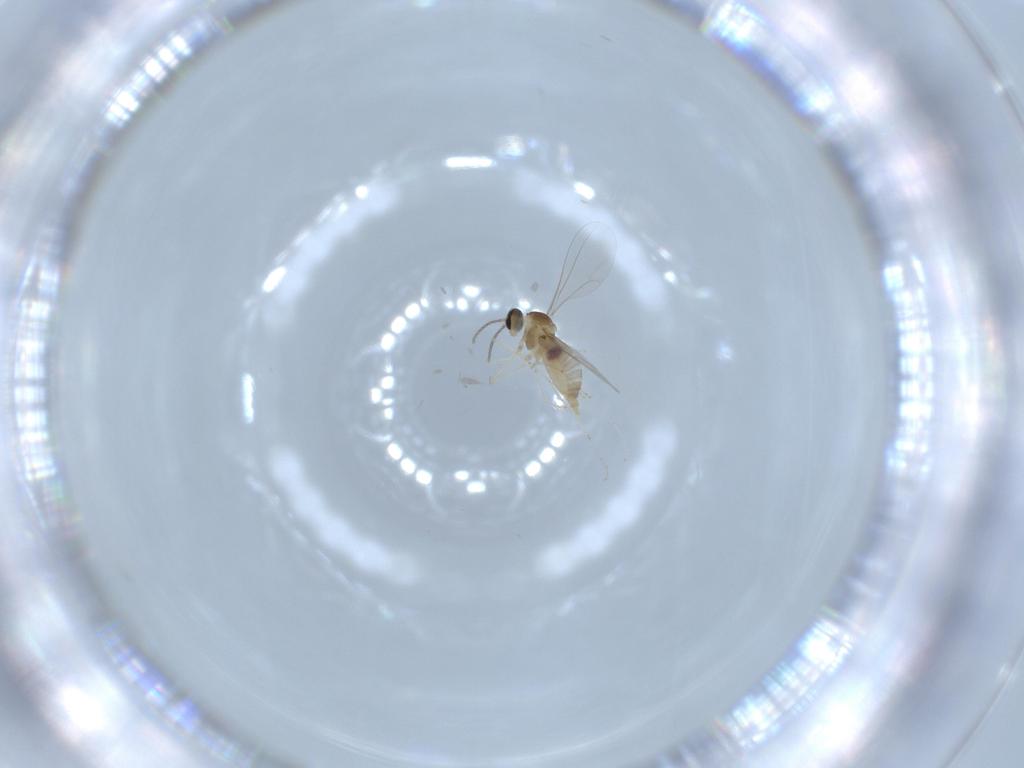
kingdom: Animalia
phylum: Arthropoda
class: Insecta
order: Diptera
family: Cecidomyiidae
